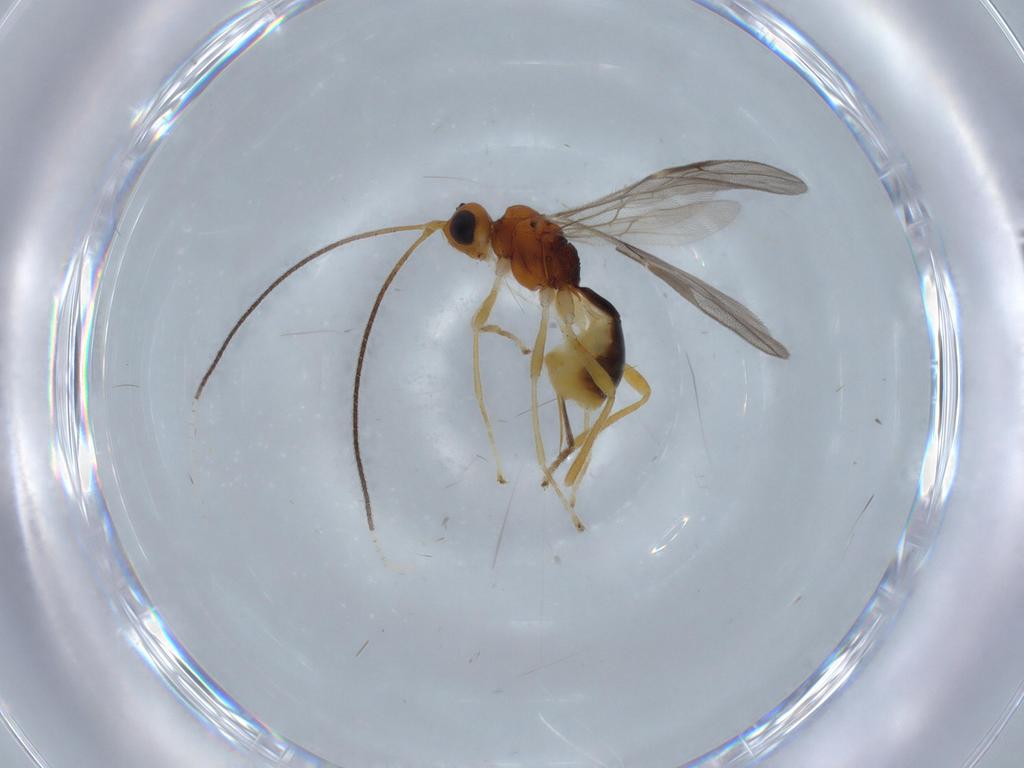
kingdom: Animalia
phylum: Arthropoda
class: Insecta
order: Hymenoptera
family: Braconidae
